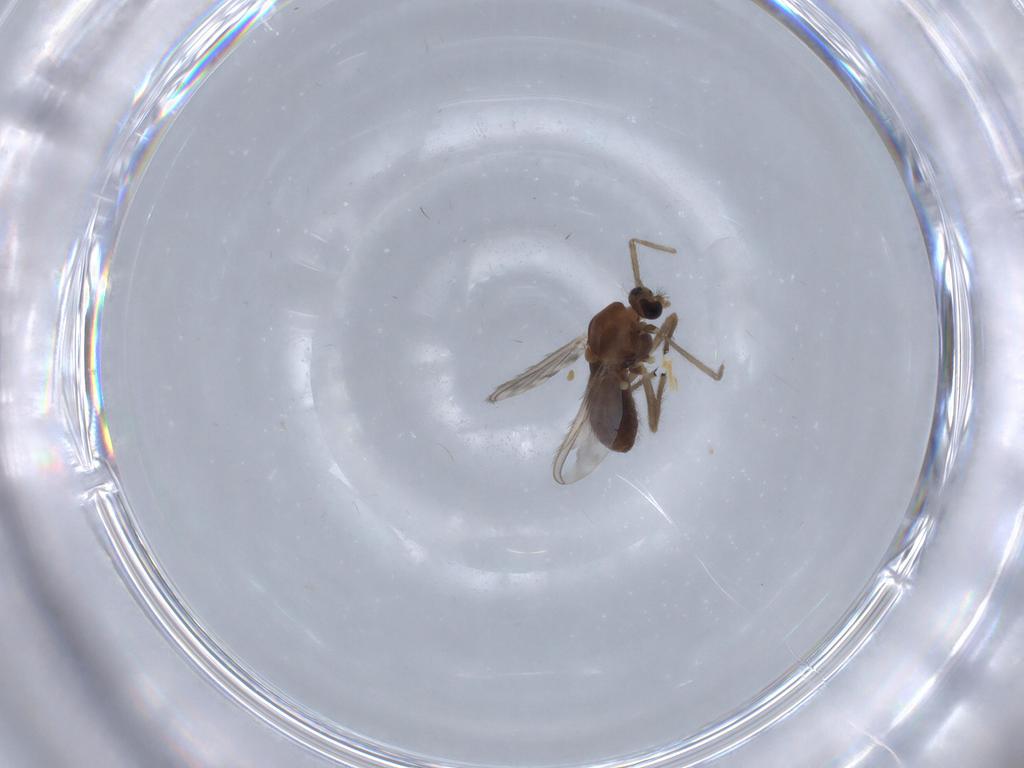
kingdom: Animalia
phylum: Arthropoda
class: Insecta
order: Diptera
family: Chironomidae
